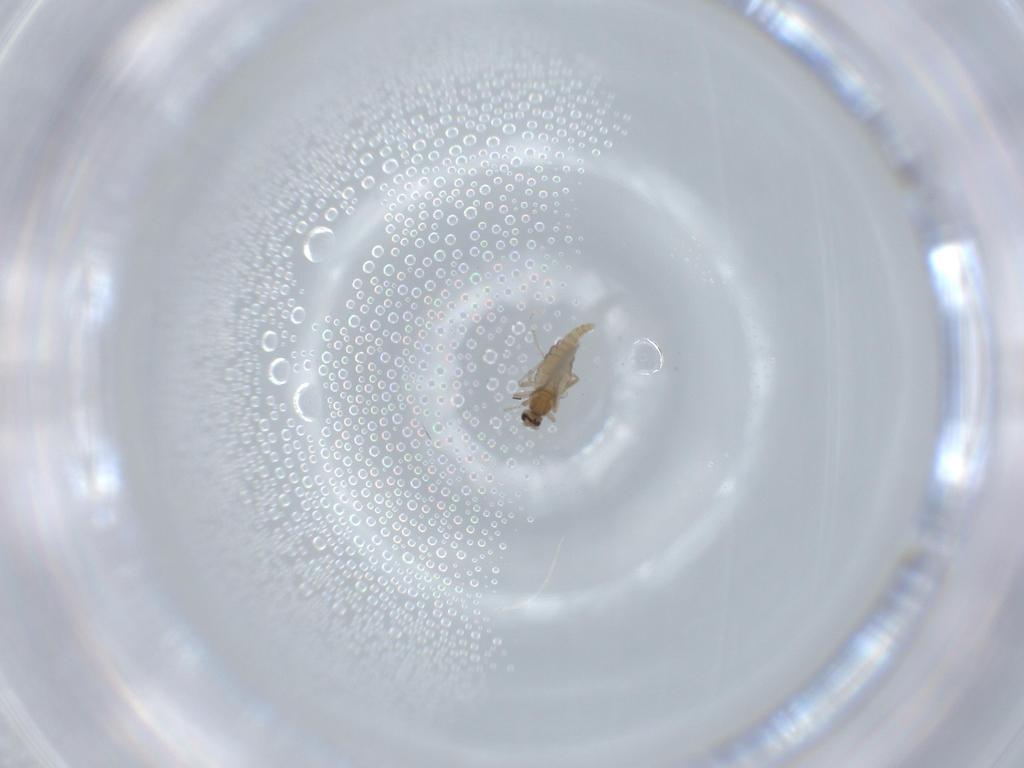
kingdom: Animalia
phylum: Arthropoda
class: Insecta
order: Diptera
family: Cecidomyiidae
